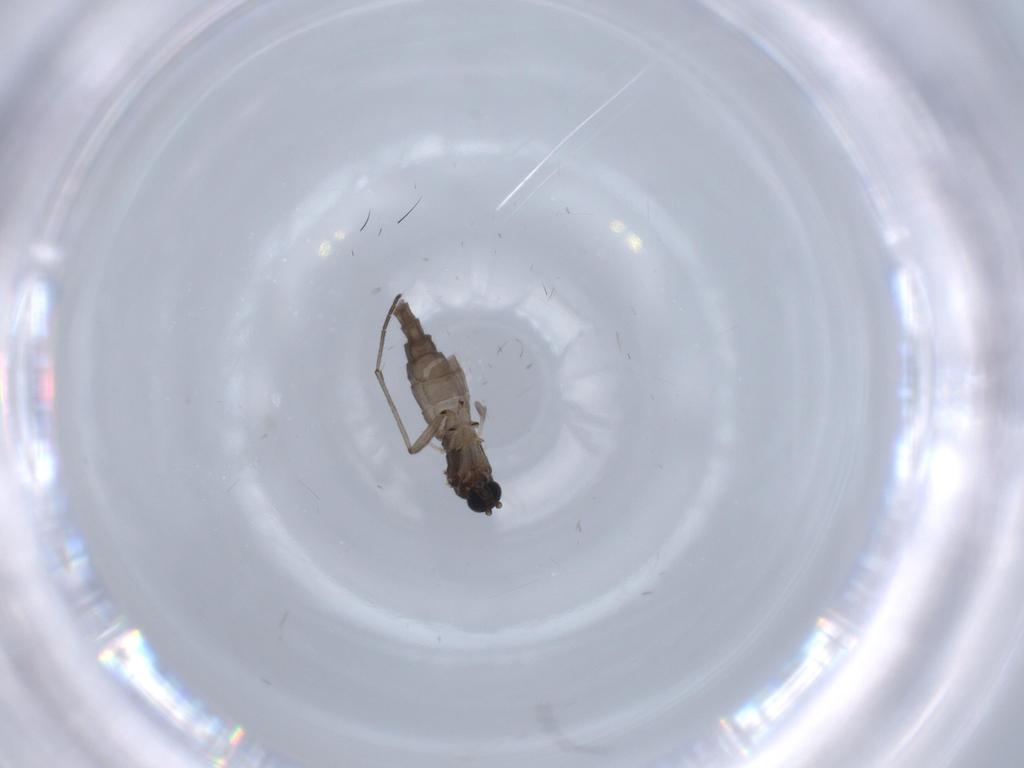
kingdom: Animalia
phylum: Arthropoda
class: Insecta
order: Diptera
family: Sciaridae
